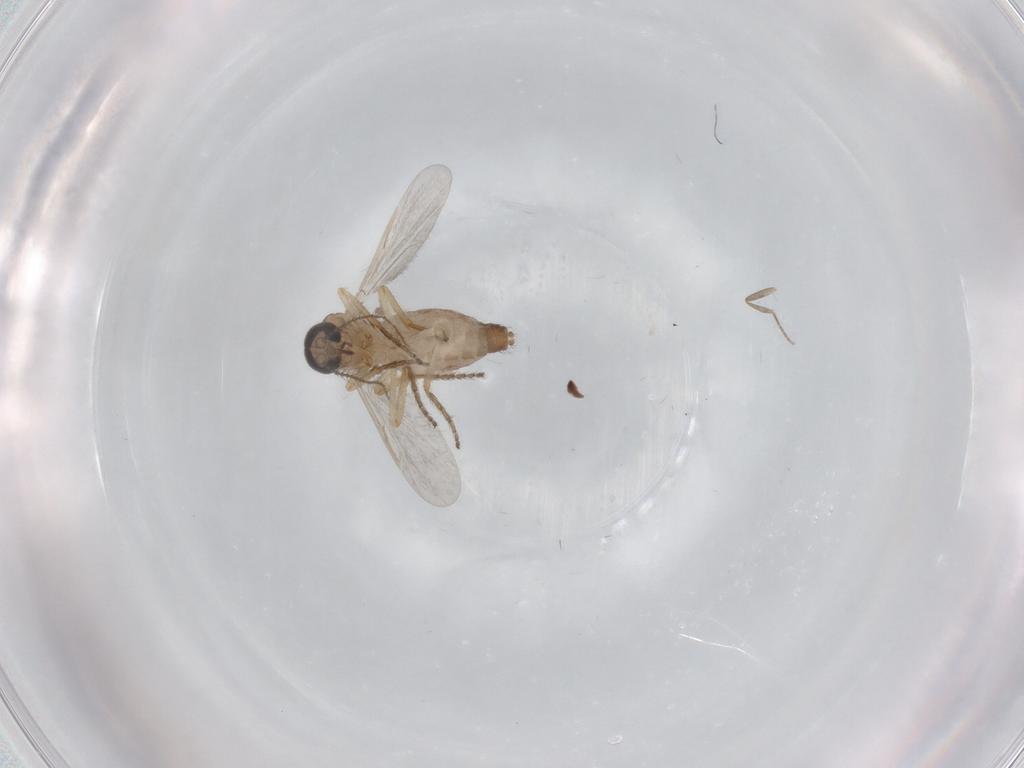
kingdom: Animalia
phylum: Arthropoda
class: Insecta
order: Diptera
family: Ceratopogonidae
